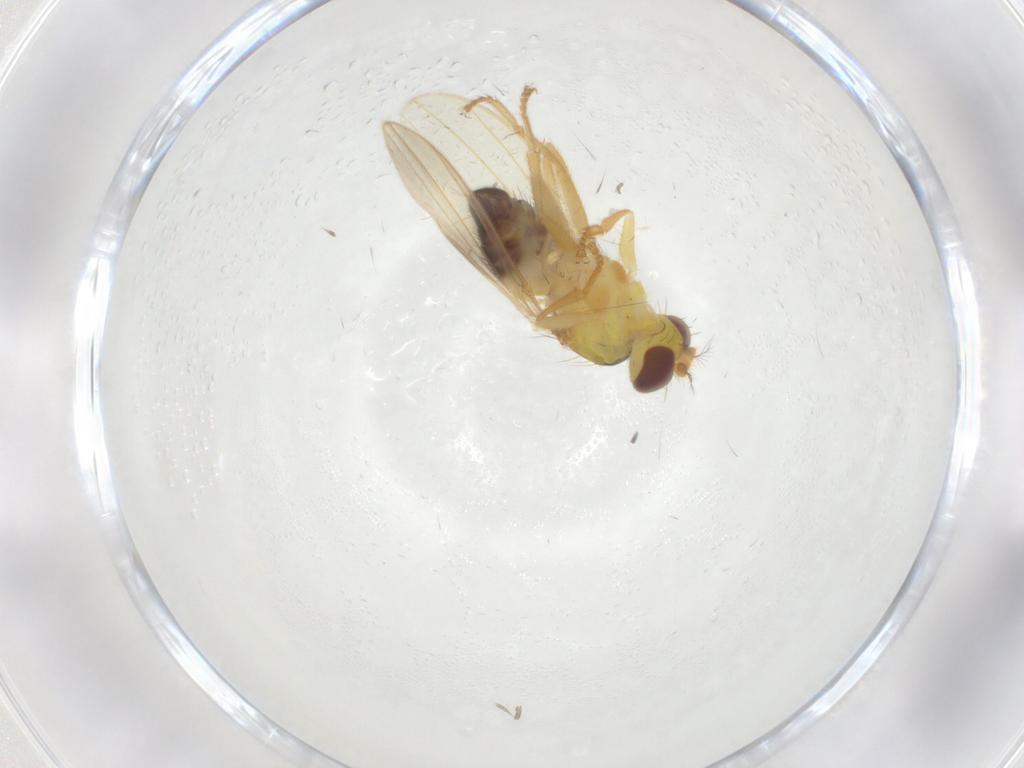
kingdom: Animalia
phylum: Arthropoda
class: Insecta
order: Diptera
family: Periscelididae
